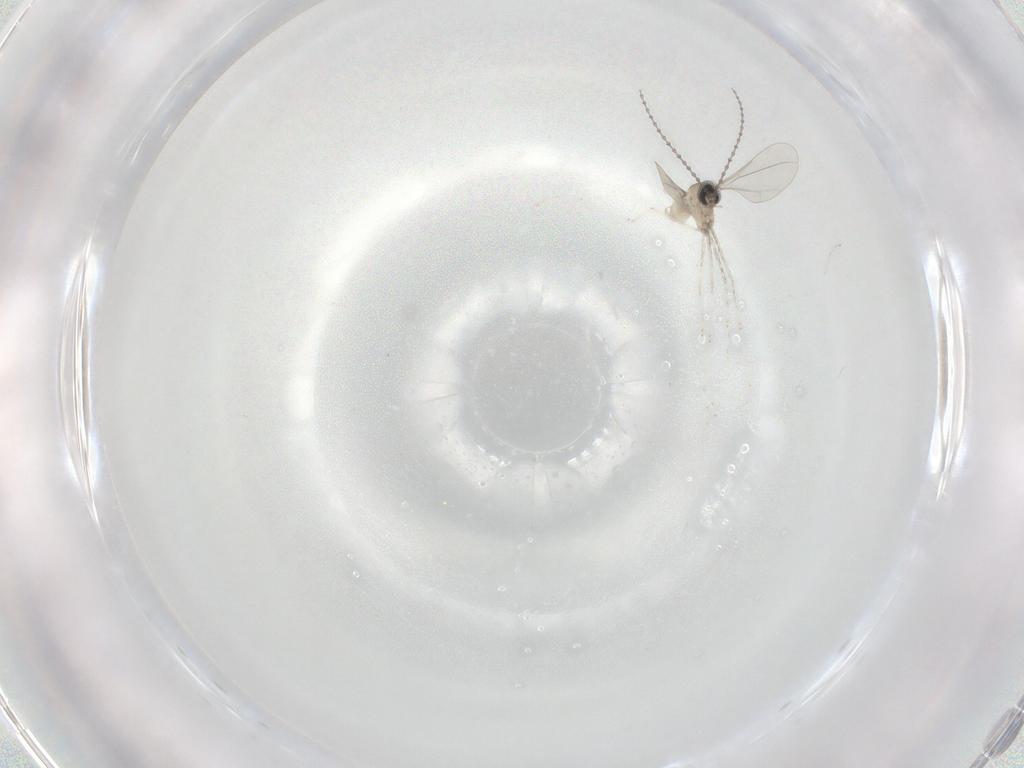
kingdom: Animalia
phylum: Arthropoda
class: Insecta
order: Diptera
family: Cecidomyiidae
